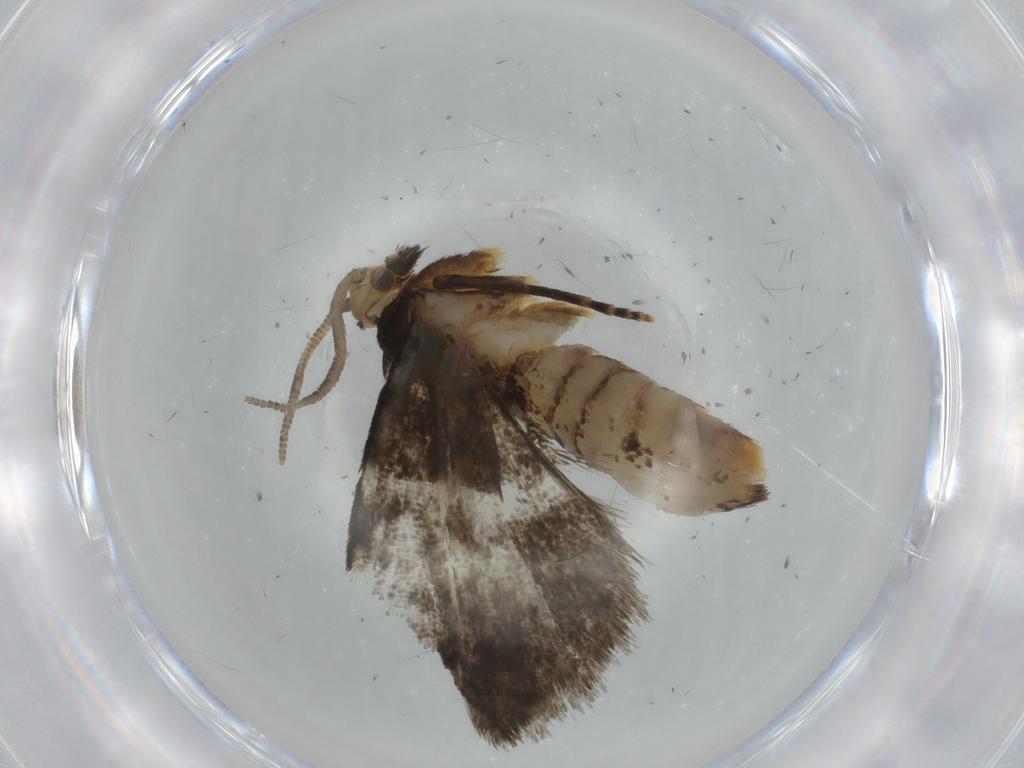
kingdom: Animalia
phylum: Arthropoda
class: Insecta
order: Lepidoptera
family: Dryadaulidae
